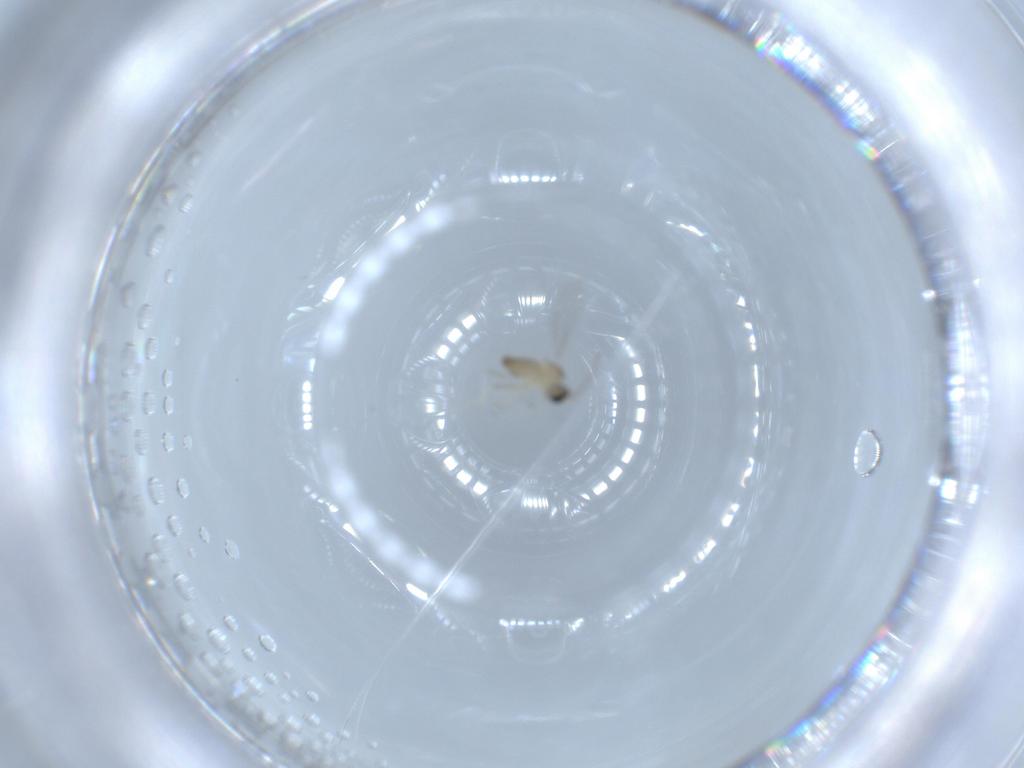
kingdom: Animalia
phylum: Arthropoda
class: Insecta
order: Diptera
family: Cecidomyiidae
